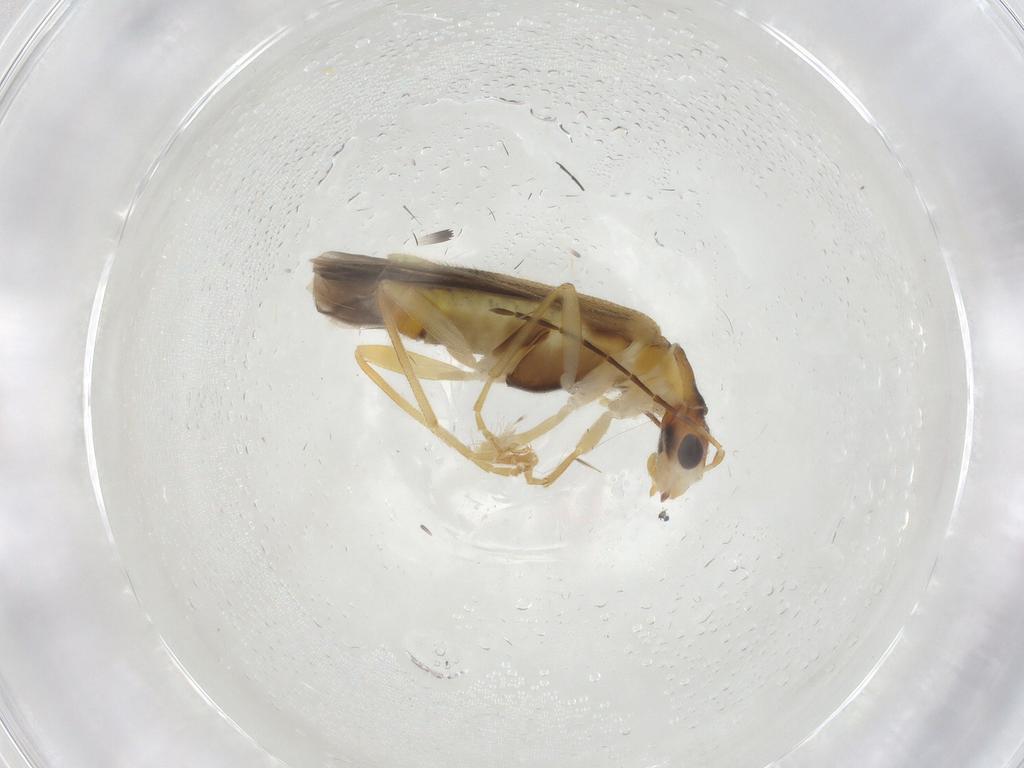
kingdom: Animalia
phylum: Arthropoda
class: Insecta
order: Coleoptera
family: Cantharidae
